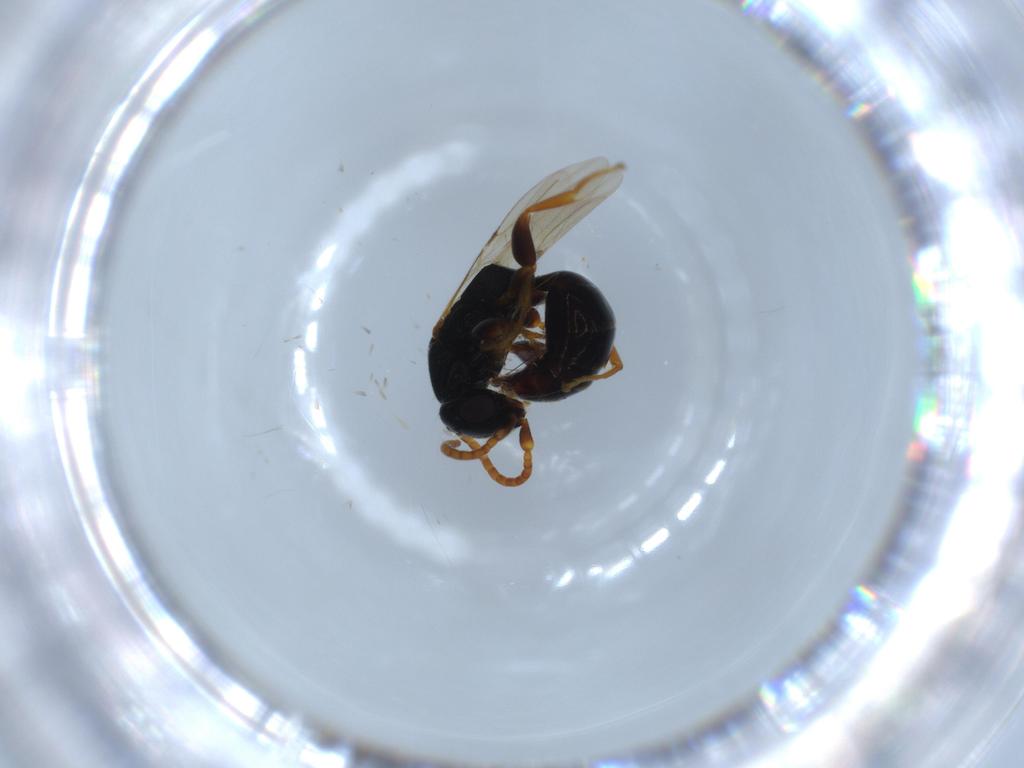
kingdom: Animalia
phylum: Arthropoda
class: Insecta
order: Hymenoptera
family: Bethylidae
